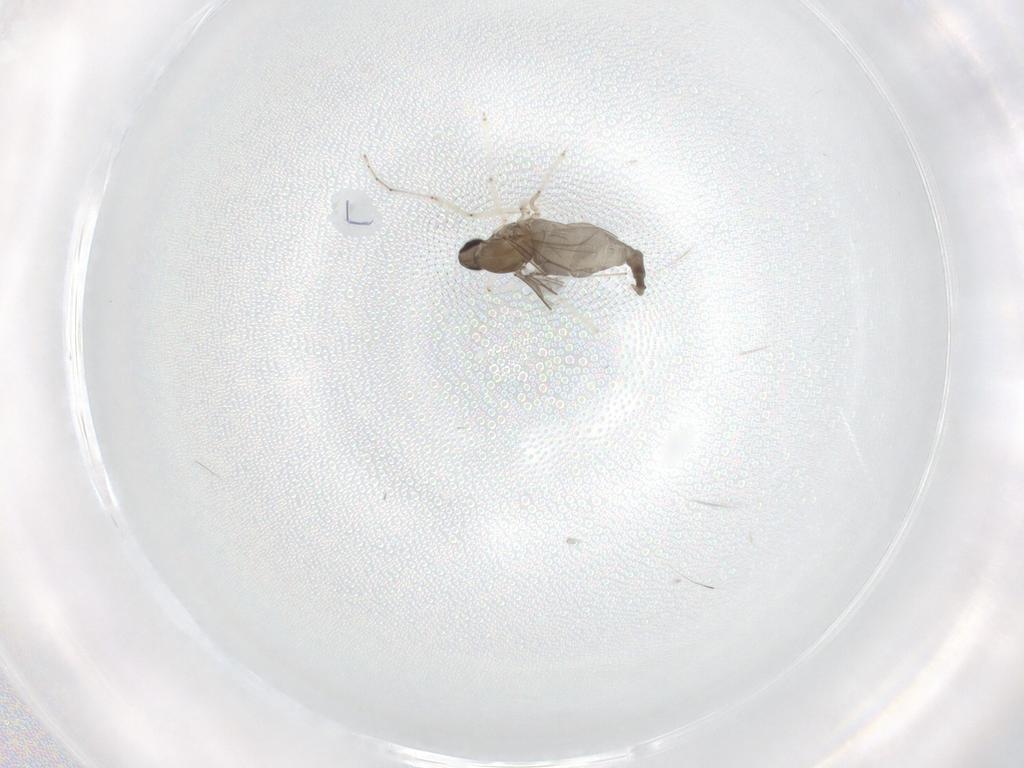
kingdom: Animalia
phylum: Arthropoda
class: Insecta
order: Diptera
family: Cecidomyiidae
